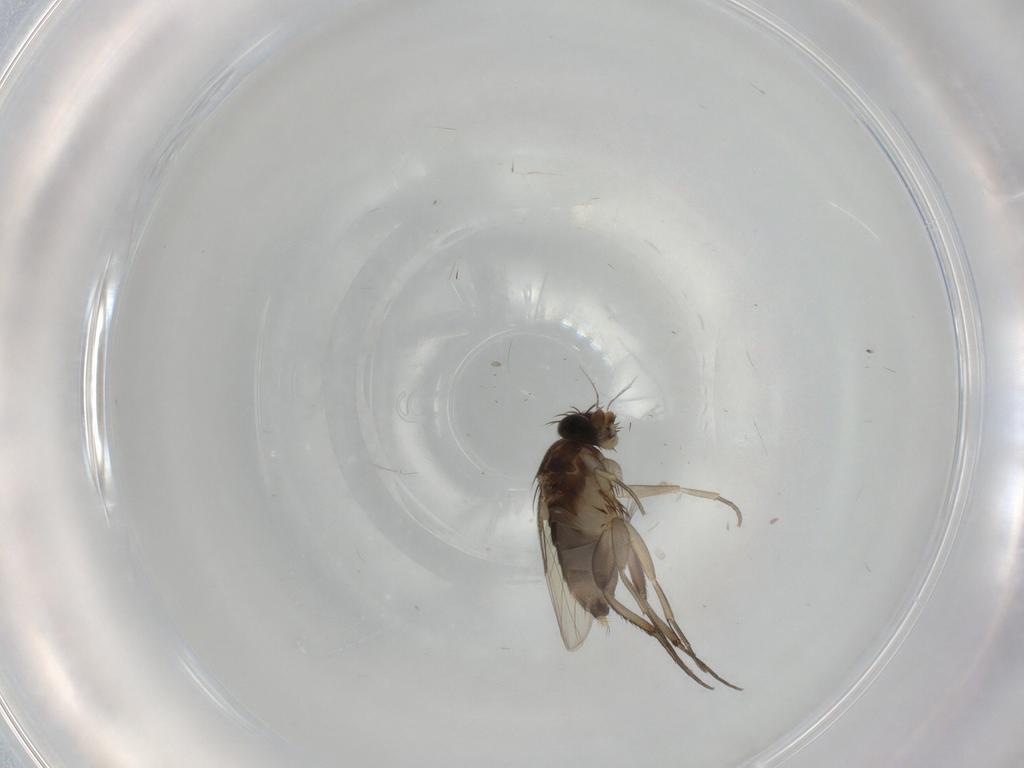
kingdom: Animalia
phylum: Arthropoda
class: Insecta
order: Diptera
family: Phoridae
